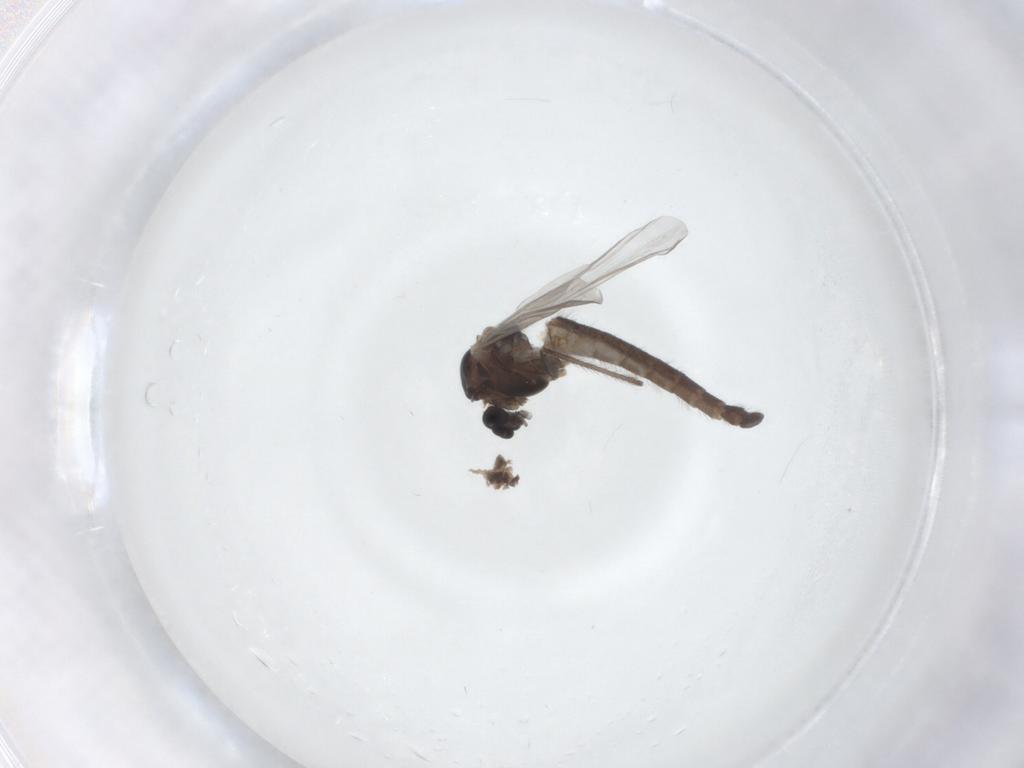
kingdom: Animalia
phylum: Arthropoda
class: Insecta
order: Diptera
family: Chironomidae
